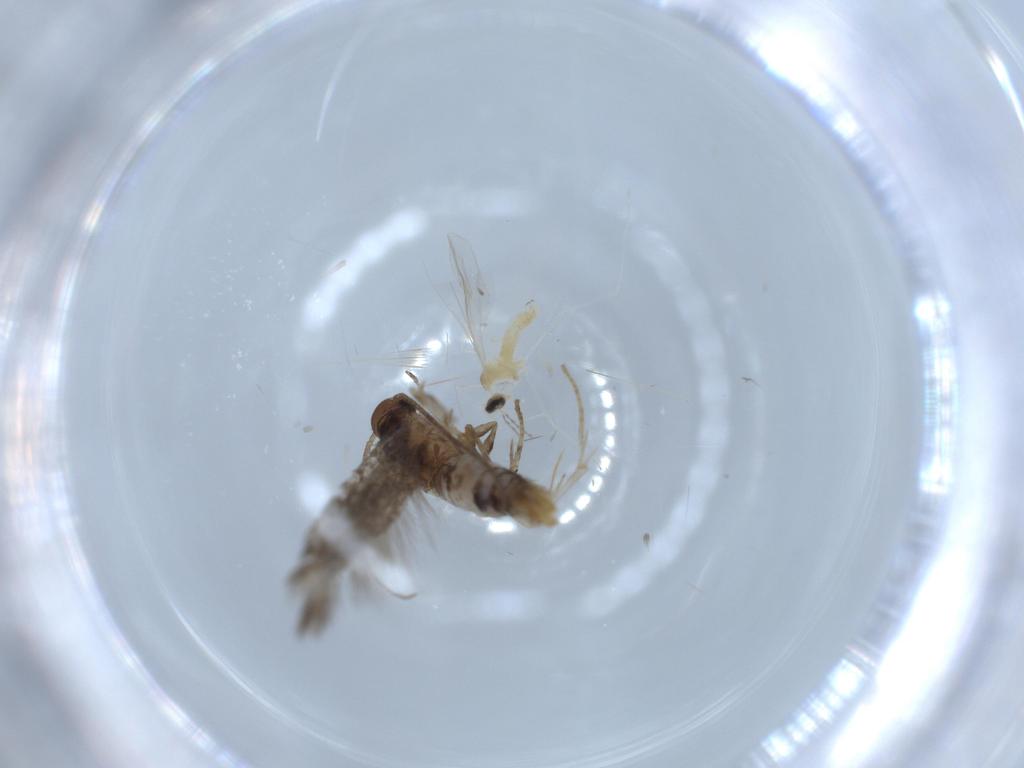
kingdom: Animalia
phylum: Arthropoda
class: Insecta
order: Lepidoptera
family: Elachistidae
